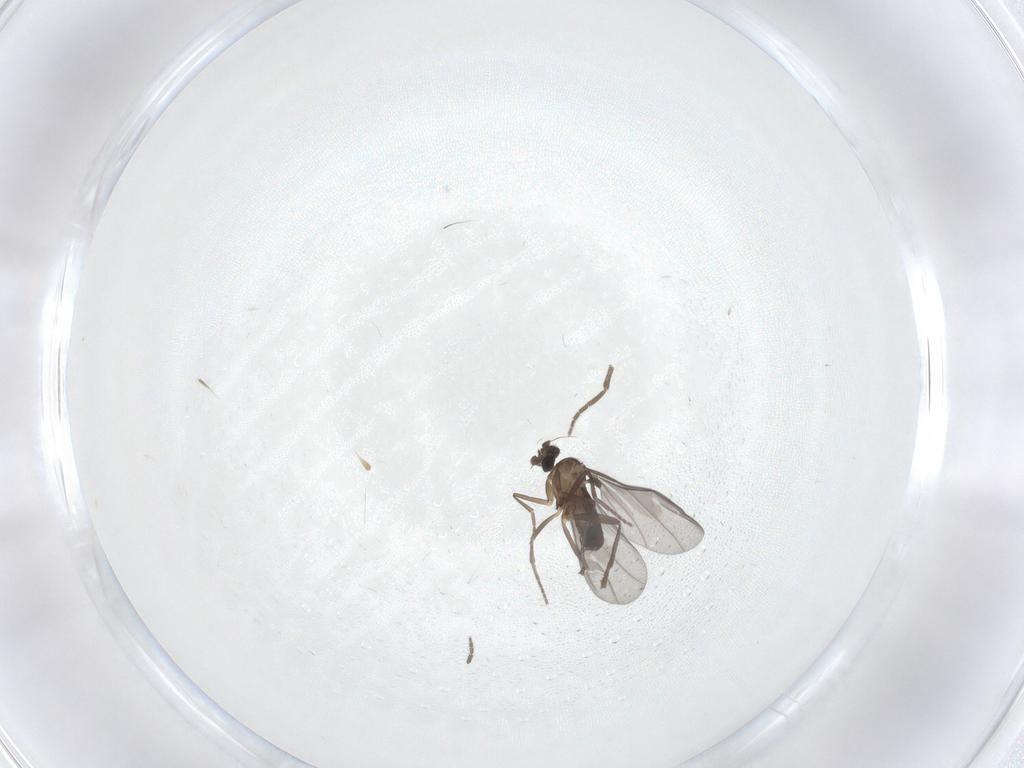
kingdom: Animalia
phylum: Arthropoda
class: Insecta
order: Diptera
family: Phoridae
